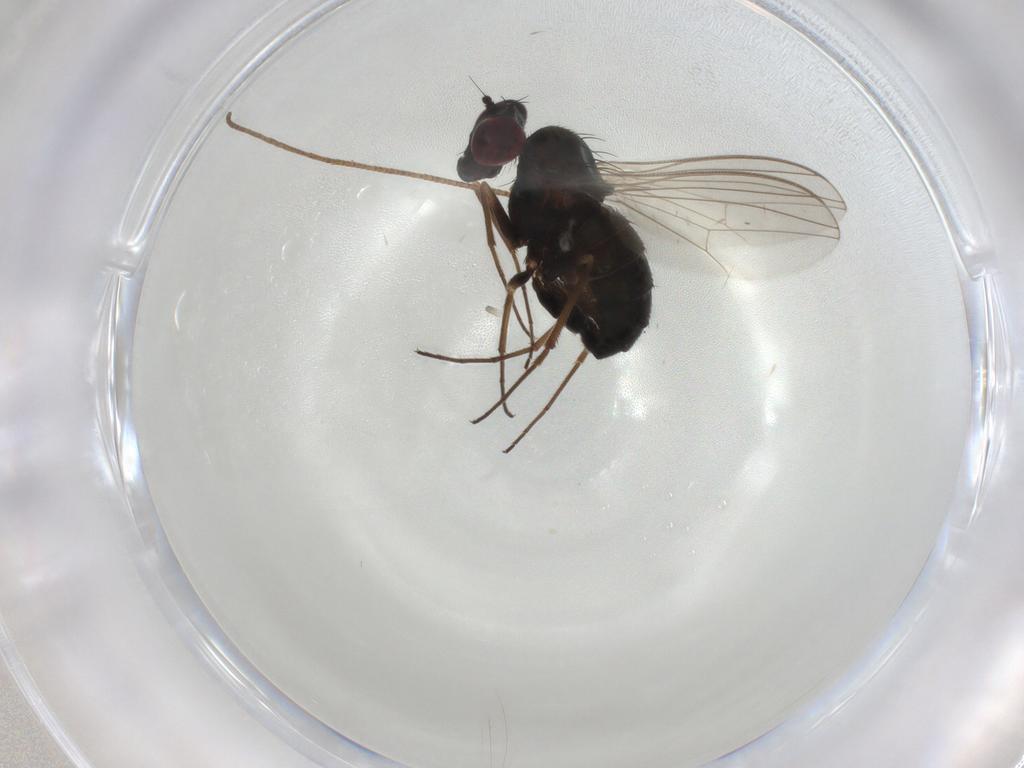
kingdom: Animalia
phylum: Arthropoda
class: Insecta
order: Diptera
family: Dolichopodidae
